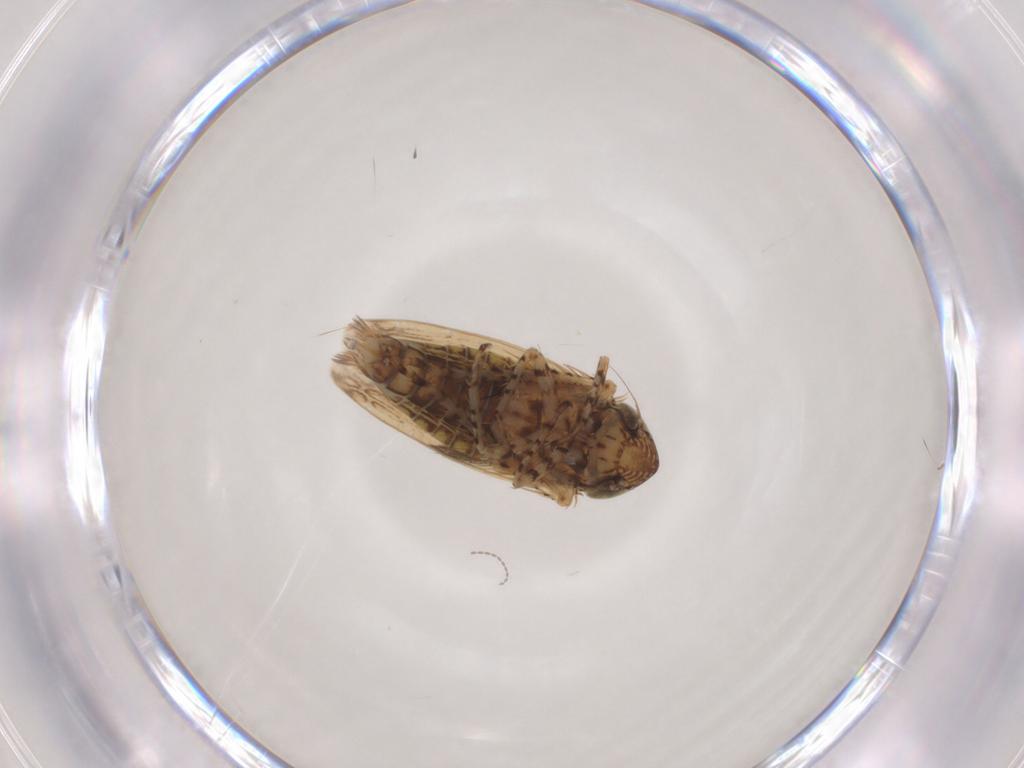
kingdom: Animalia
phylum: Arthropoda
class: Insecta
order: Hemiptera
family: Cicadellidae
